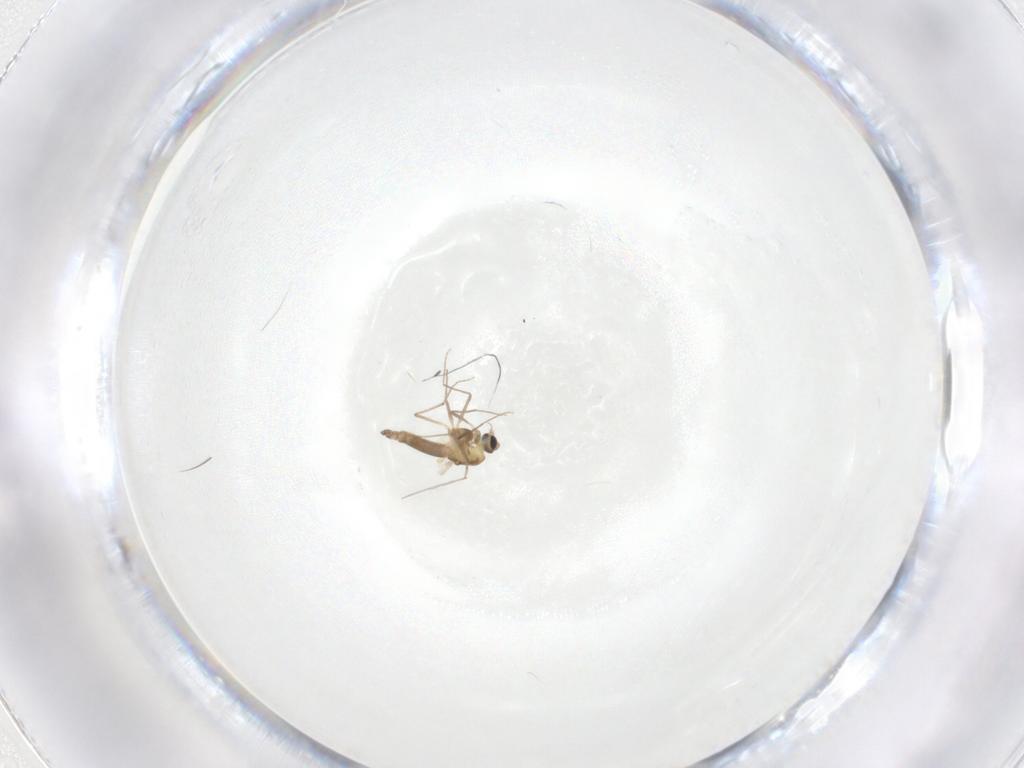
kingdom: Animalia
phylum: Arthropoda
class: Insecta
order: Diptera
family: Chironomidae
